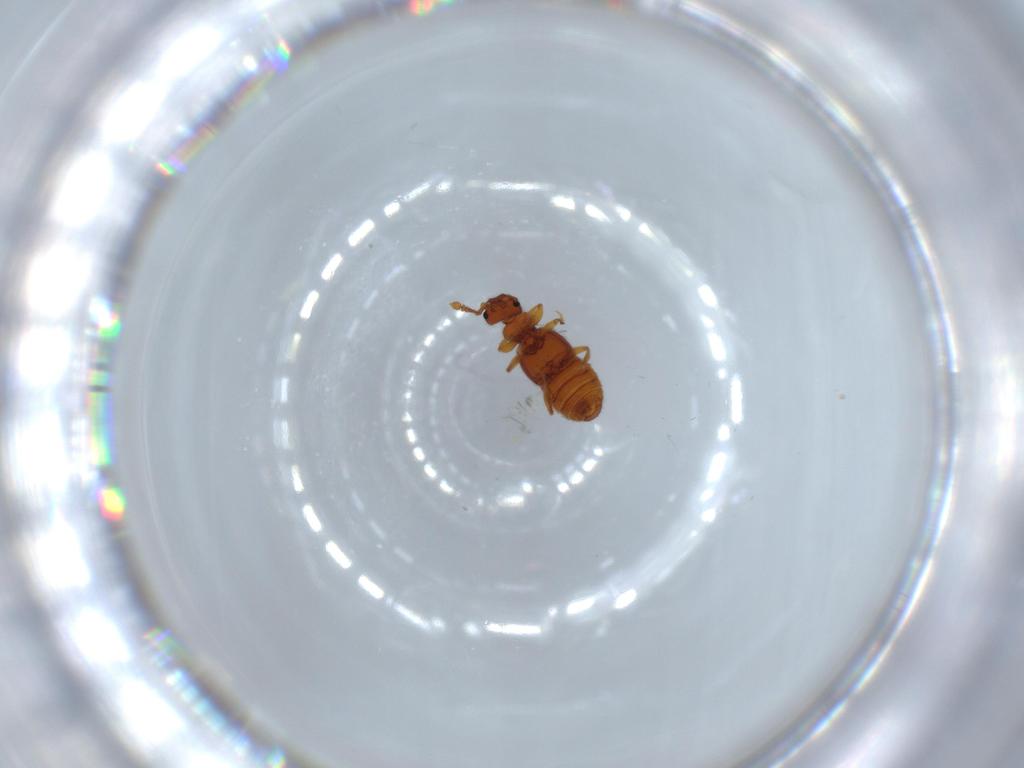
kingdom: Animalia
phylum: Arthropoda
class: Insecta
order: Coleoptera
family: Staphylinidae
